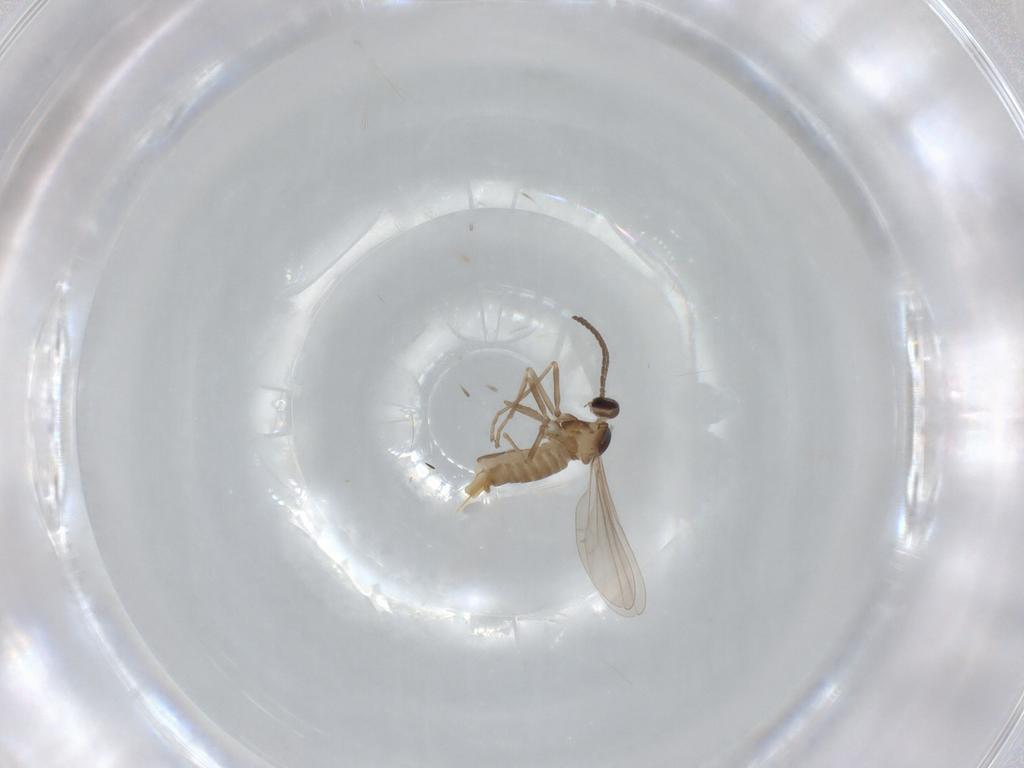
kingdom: Animalia
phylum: Arthropoda
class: Insecta
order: Diptera
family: Cecidomyiidae
